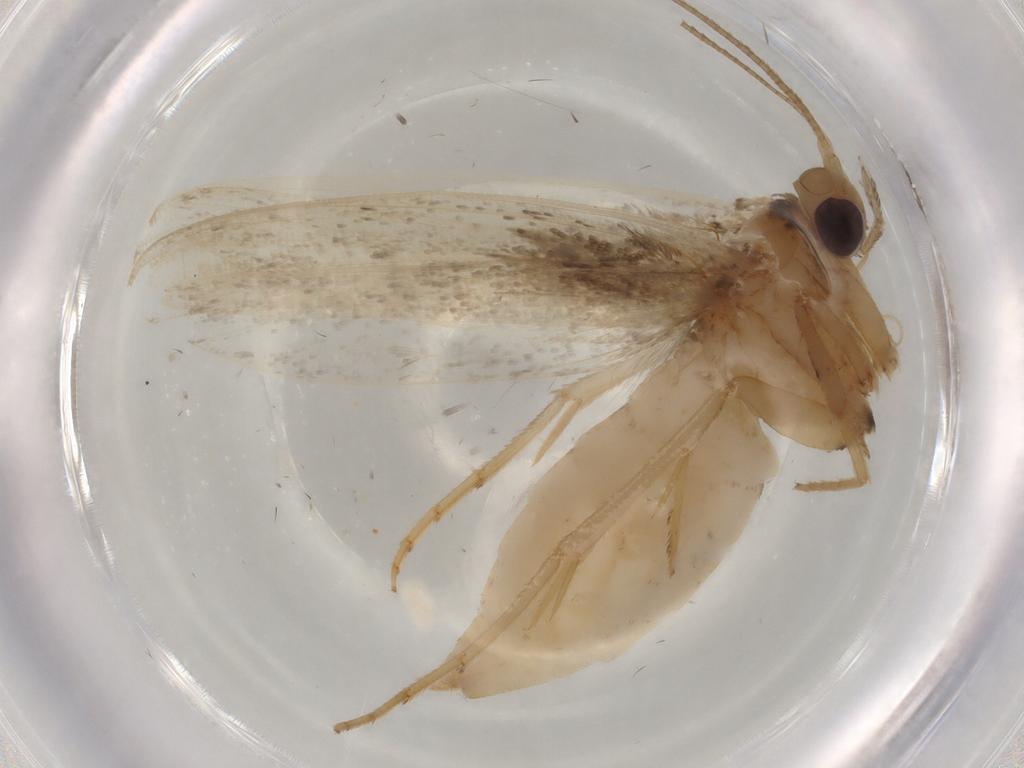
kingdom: Animalia
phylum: Arthropoda
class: Insecta
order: Lepidoptera
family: Yponomeutidae
